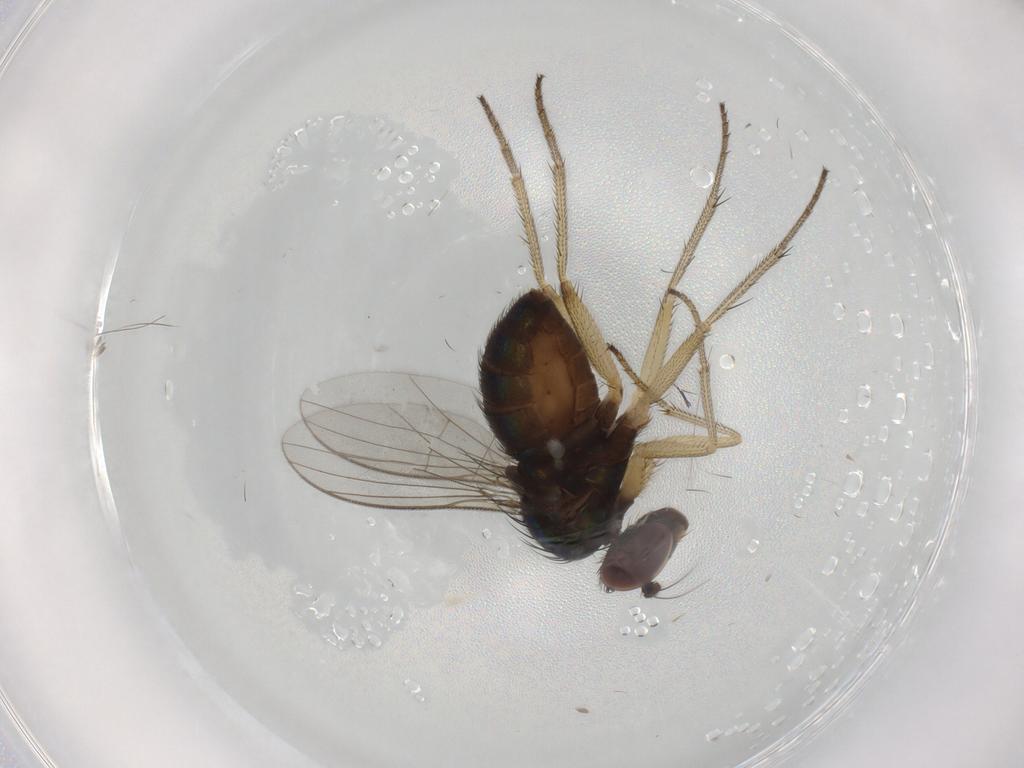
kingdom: Animalia
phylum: Arthropoda
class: Insecta
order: Diptera
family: Dolichopodidae
